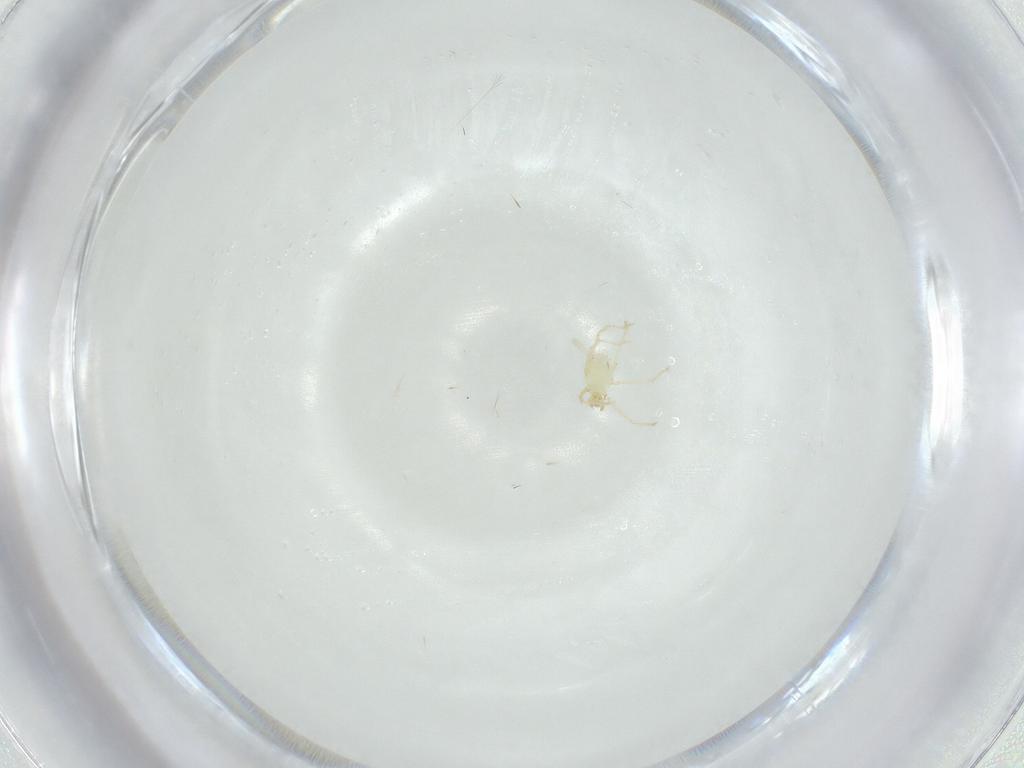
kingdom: Animalia
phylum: Arthropoda
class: Arachnida
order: Trombidiformes
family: Erythraeidae
